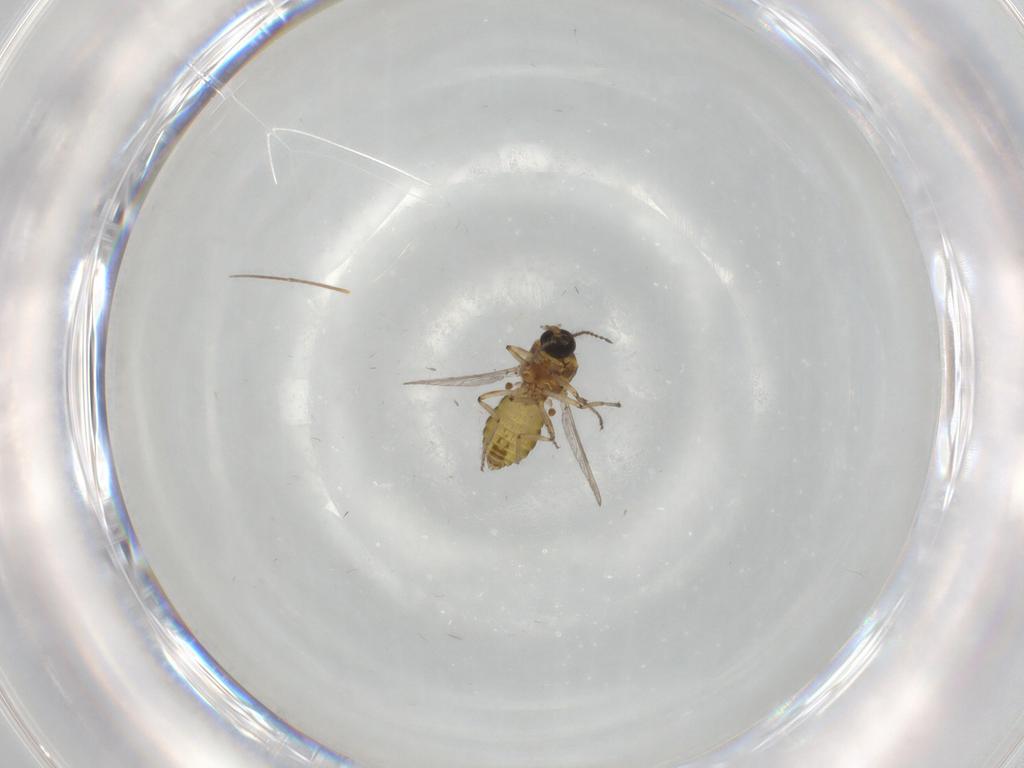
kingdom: Animalia
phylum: Arthropoda
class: Insecta
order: Diptera
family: Ceratopogonidae
